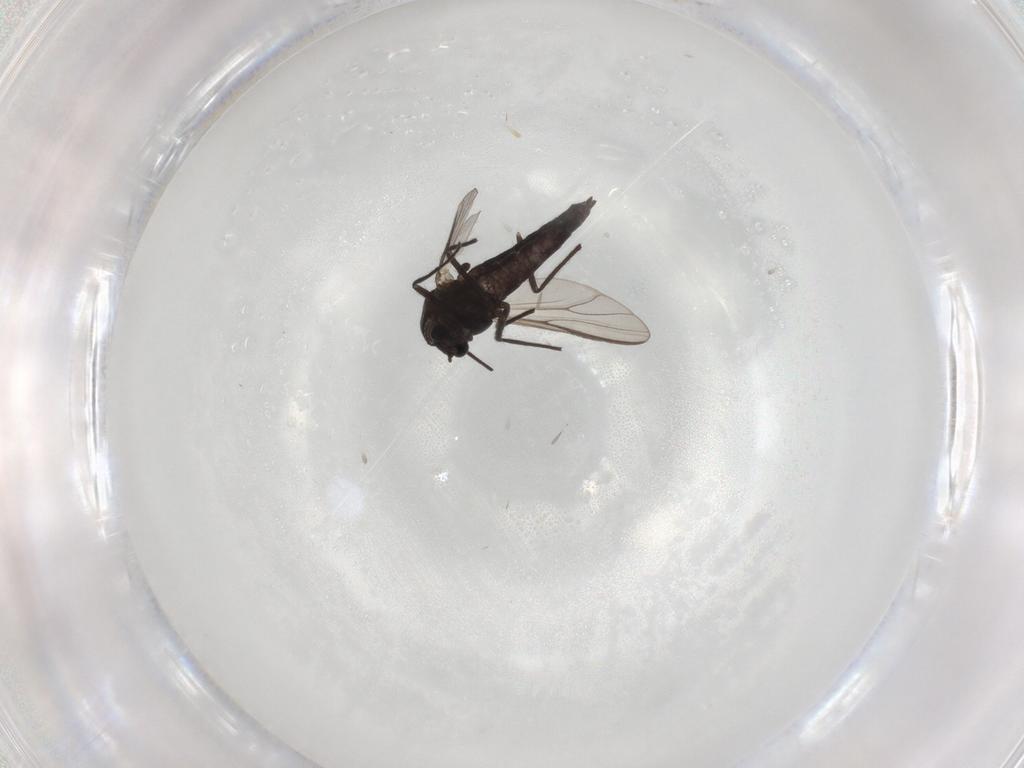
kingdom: Animalia
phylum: Arthropoda
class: Insecta
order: Diptera
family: Chironomidae
